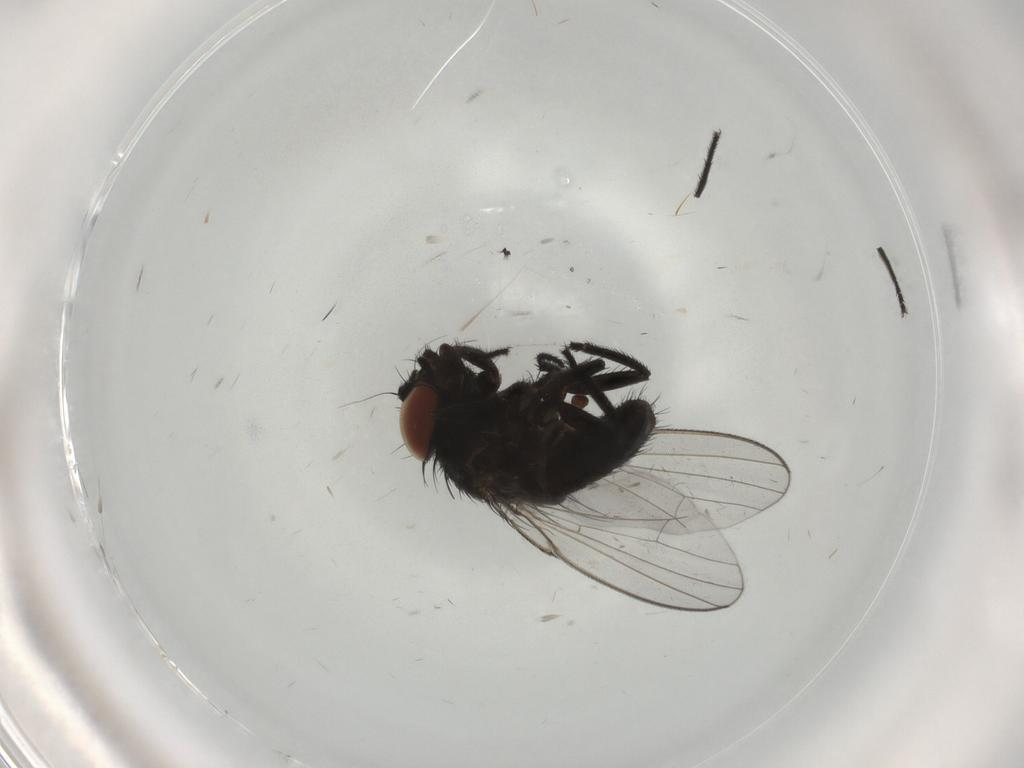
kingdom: Animalia
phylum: Arthropoda
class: Insecta
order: Diptera
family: Milichiidae
